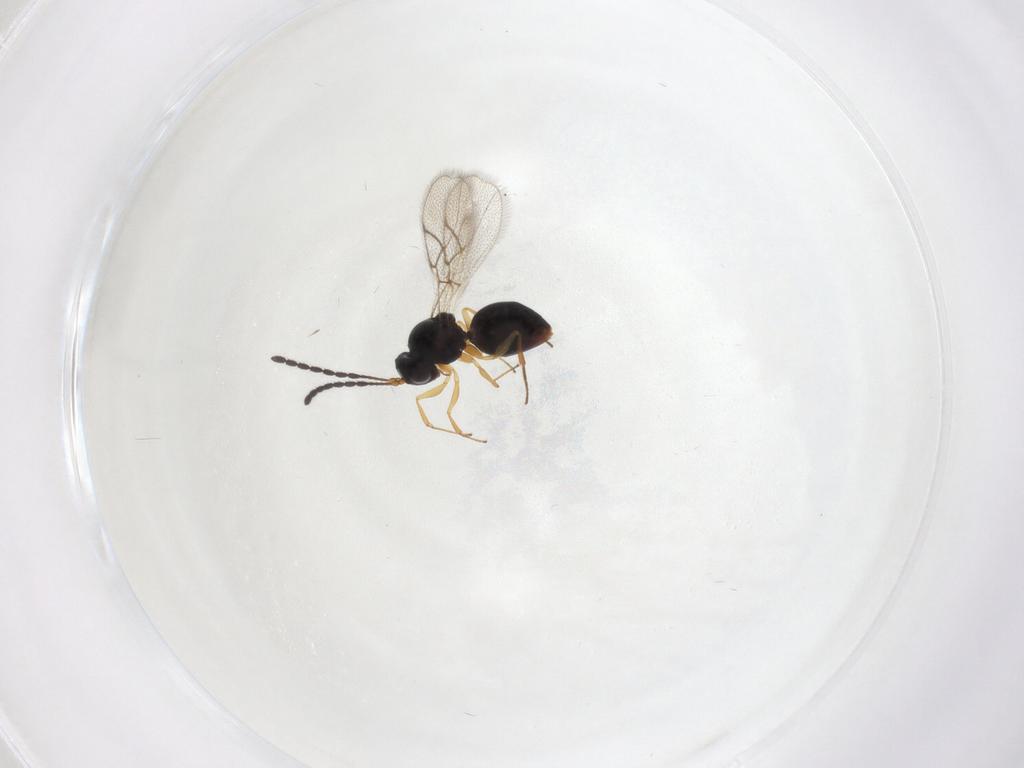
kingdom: Animalia
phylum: Arthropoda
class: Insecta
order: Hymenoptera
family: Figitidae
